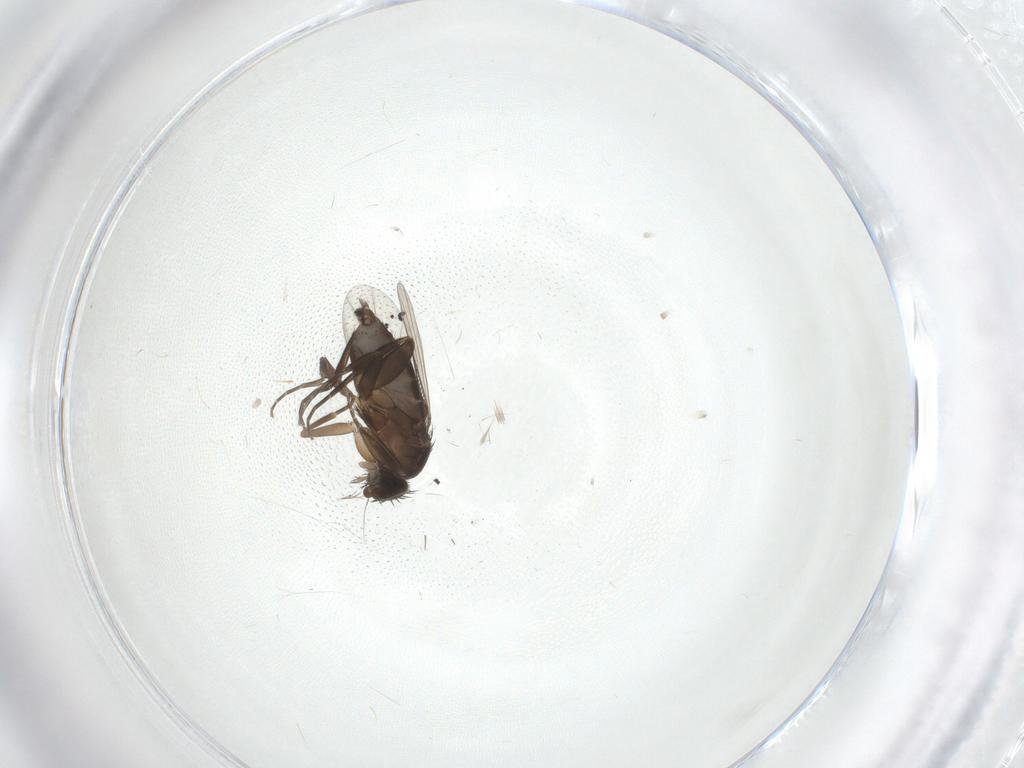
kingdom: Animalia
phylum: Arthropoda
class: Insecta
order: Diptera
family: Phoridae
